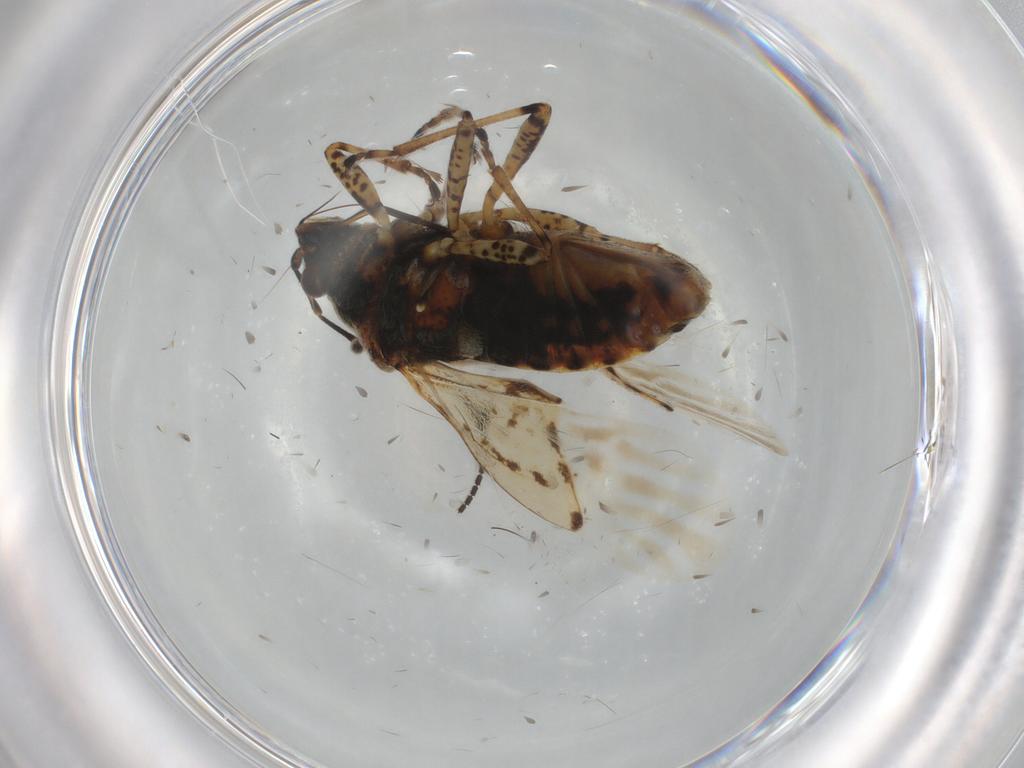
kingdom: Animalia
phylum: Arthropoda
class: Insecta
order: Hemiptera
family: Lygaeidae
